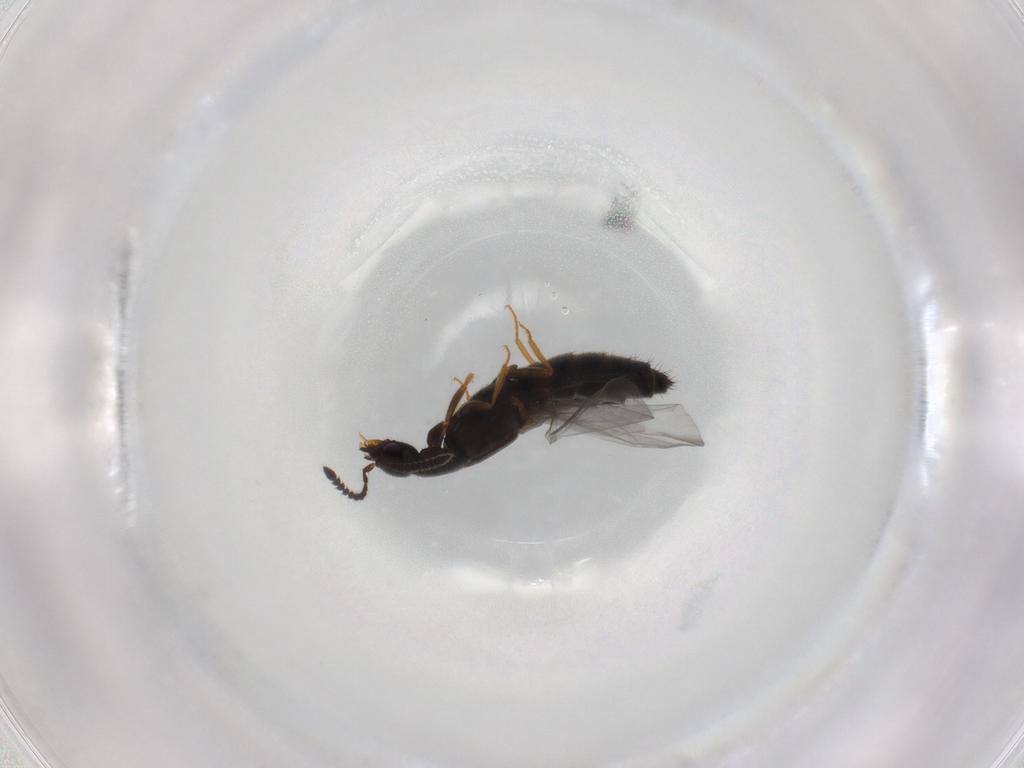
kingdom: Animalia
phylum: Arthropoda
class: Insecta
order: Coleoptera
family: Staphylinidae
